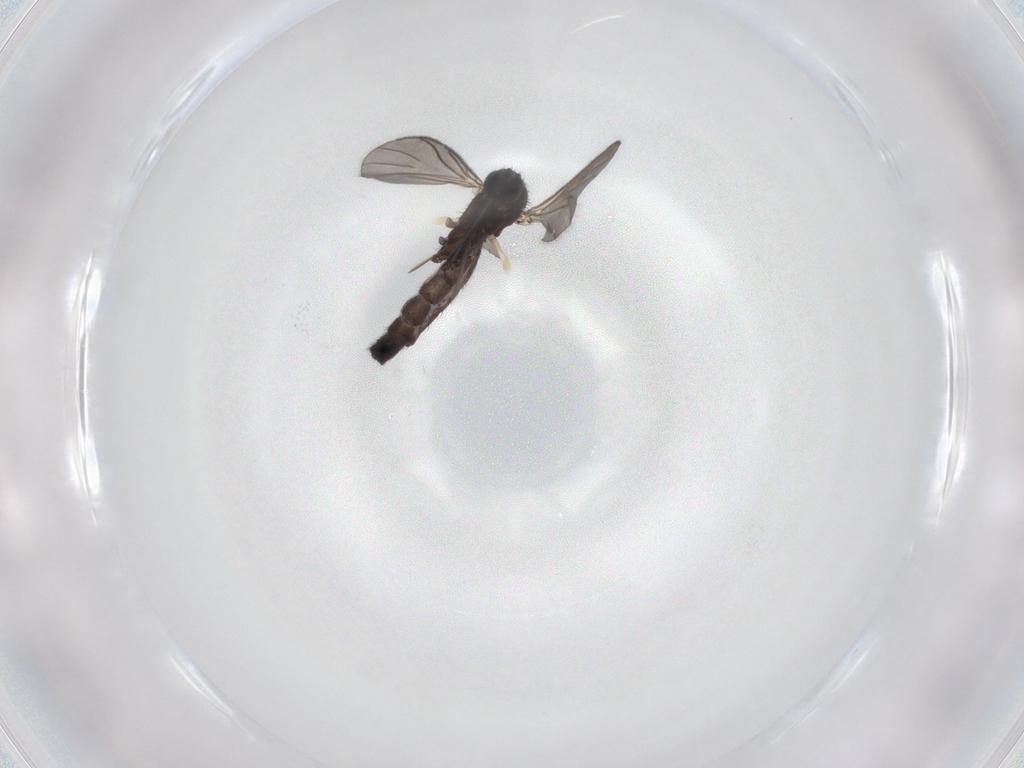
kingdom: Animalia
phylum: Arthropoda
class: Insecta
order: Diptera
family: Keroplatidae
